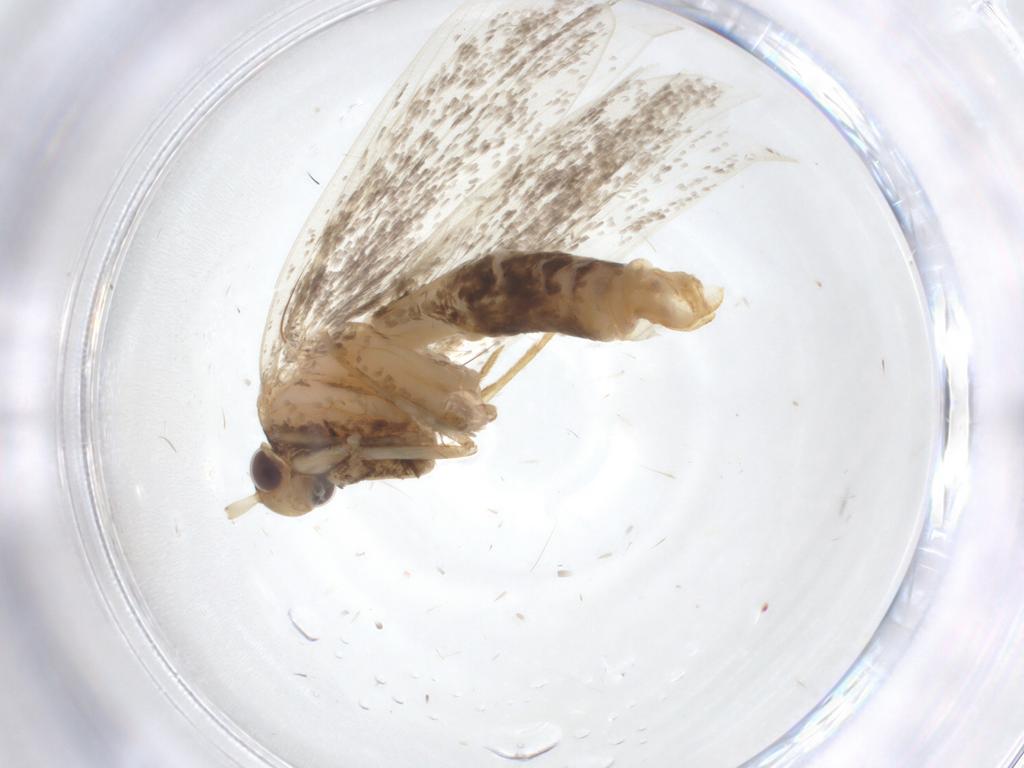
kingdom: Animalia
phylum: Arthropoda
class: Insecta
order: Lepidoptera
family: Lecithoceridae
